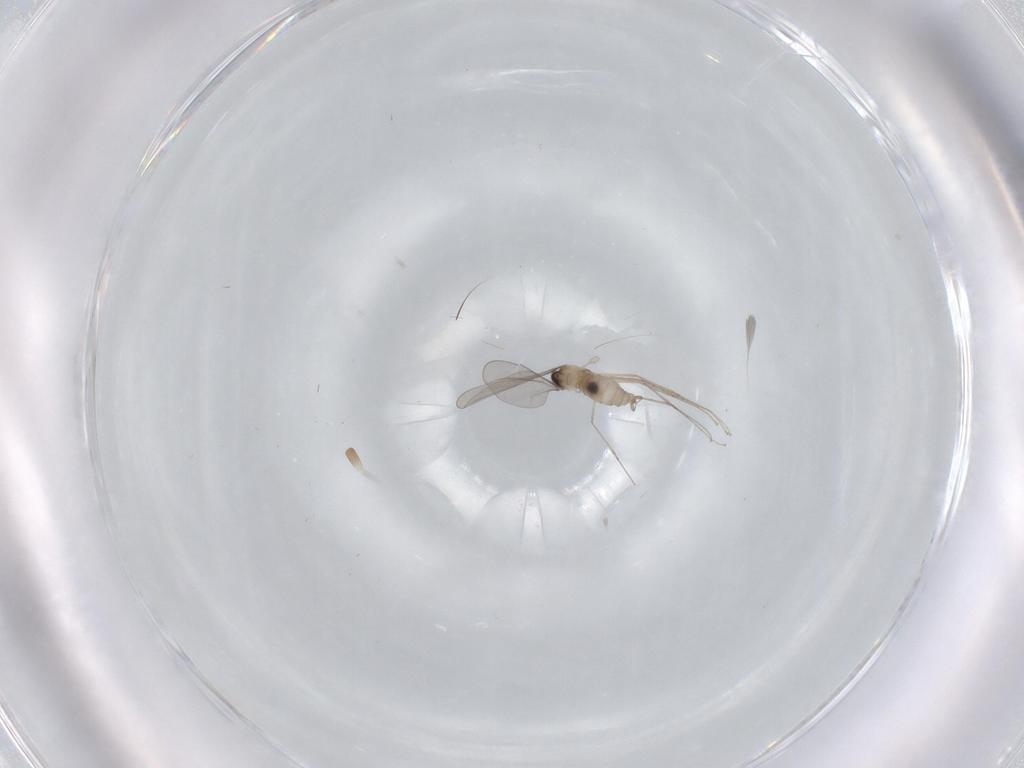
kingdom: Animalia
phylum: Arthropoda
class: Insecta
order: Diptera
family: Cecidomyiidae
